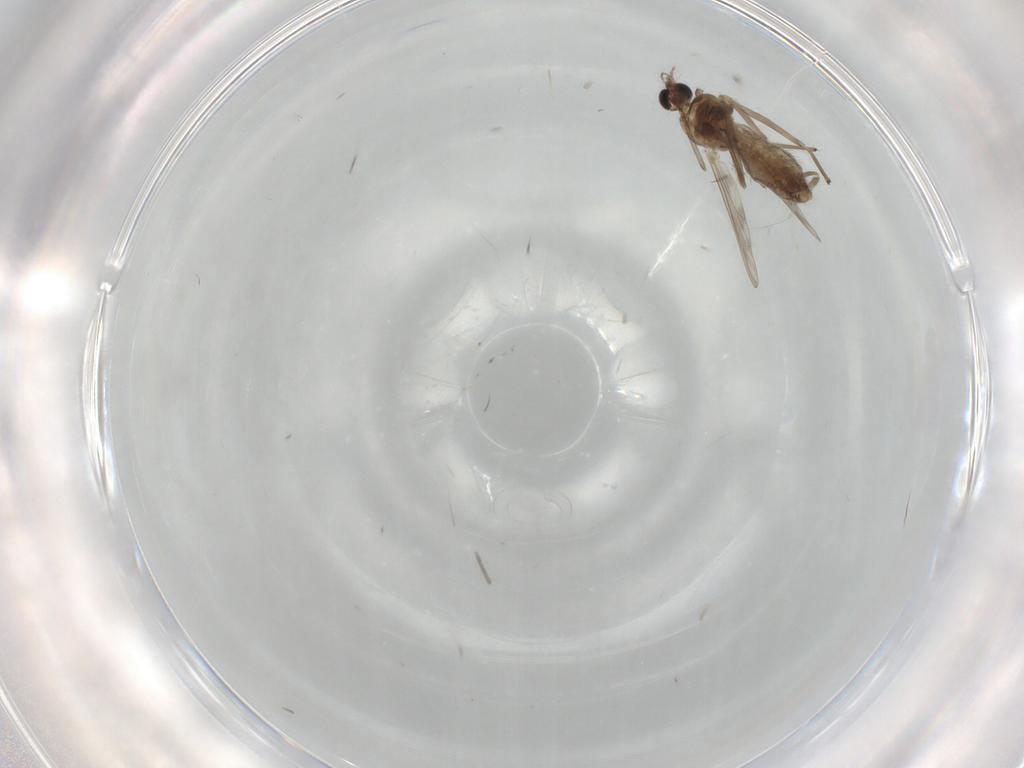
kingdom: Animalia
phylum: Arthropoda
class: Insecta
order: Diptera
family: Chironomidae
